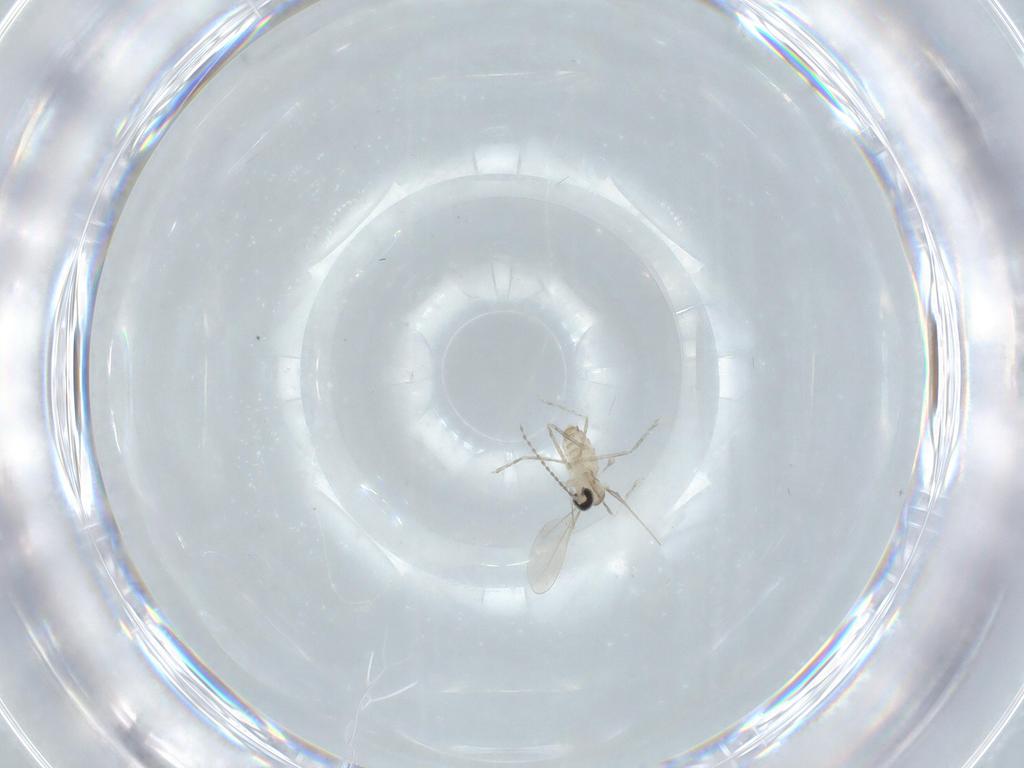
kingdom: Animalia
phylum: Arthropoda
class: Insecta
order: Diptera
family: Cecidomyiidae
